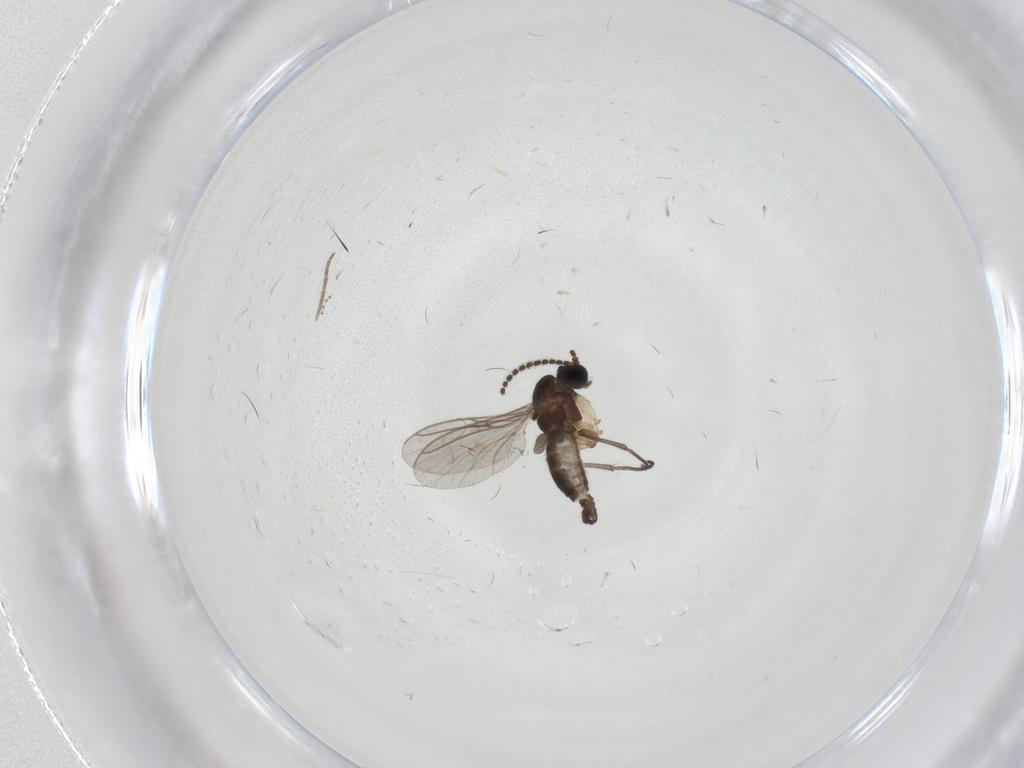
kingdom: Animalia
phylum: Arthropoda
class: Insecta
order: Diptera
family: Sciaridae
